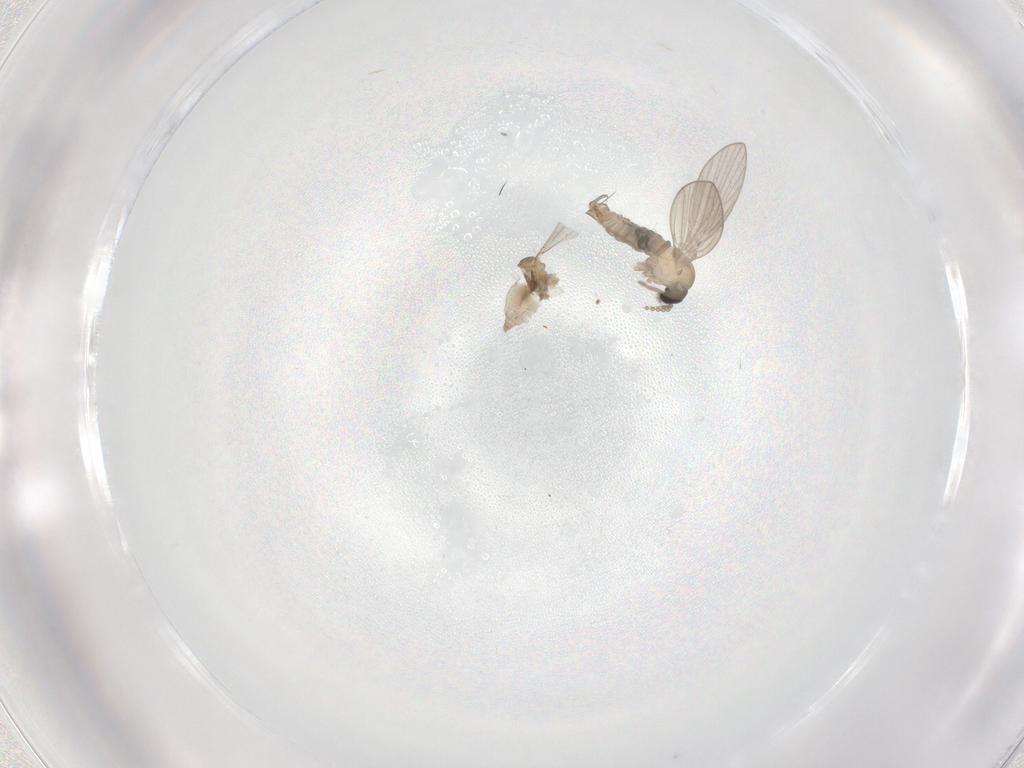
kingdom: Animalia
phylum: Arthropoda
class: Insecta
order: Diptera
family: Psychodidae
